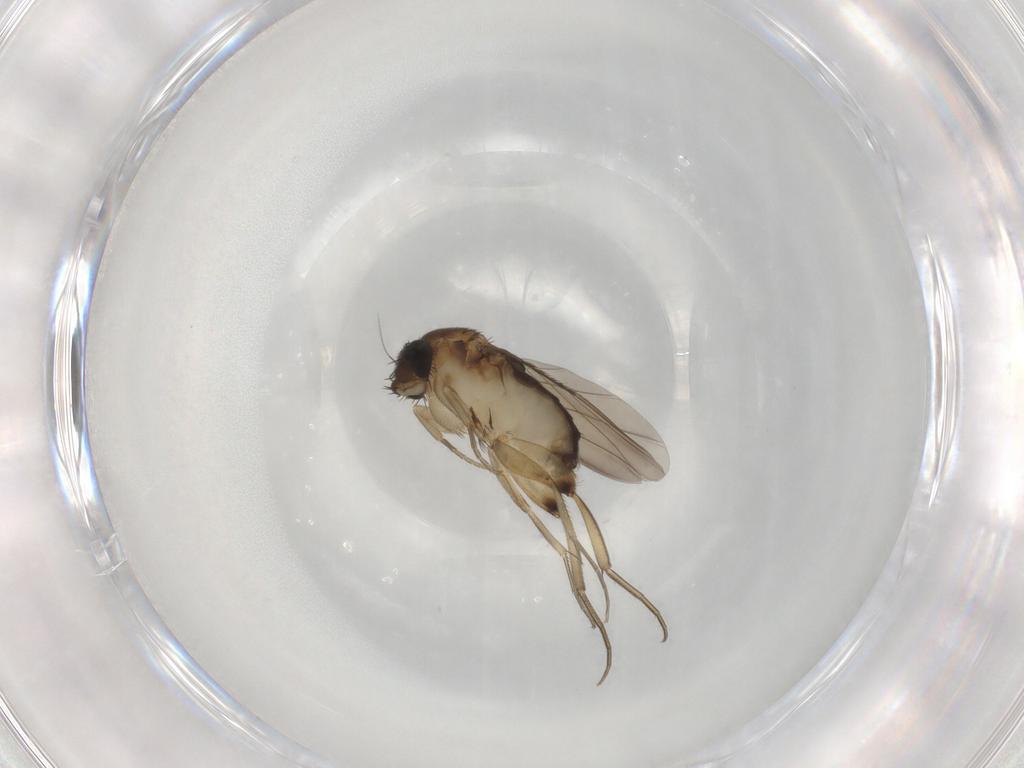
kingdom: Animalia
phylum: Arthropoda
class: Insecta
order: Diptera
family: Phoridae
